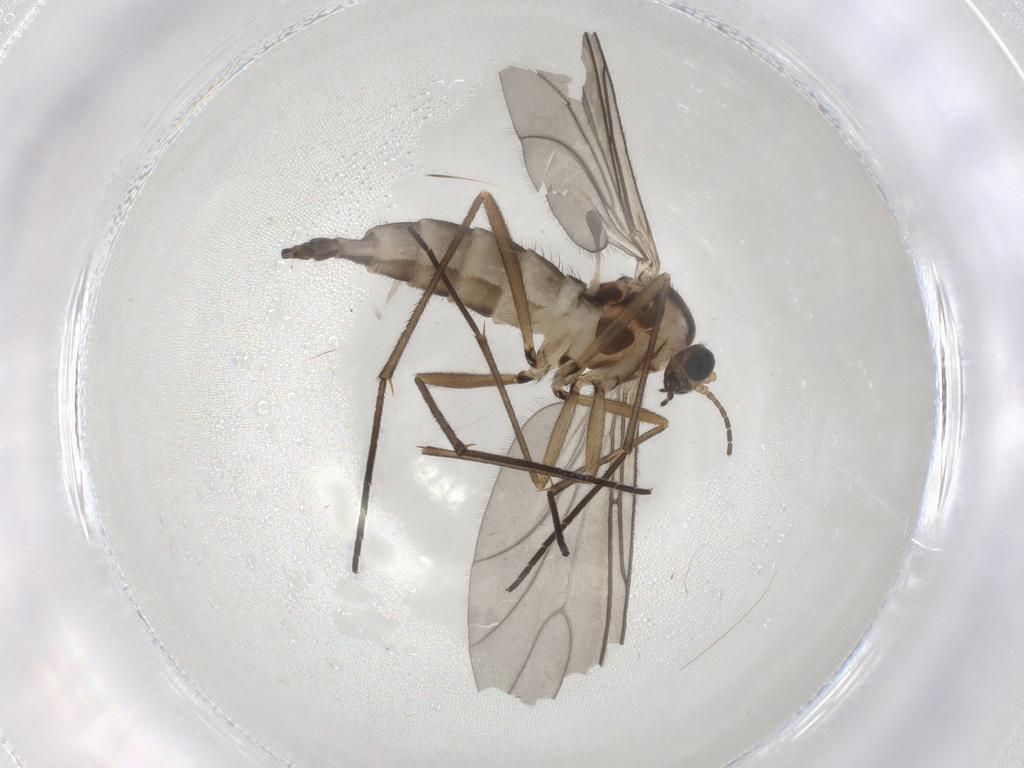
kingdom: Animalia
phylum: Arthropoda
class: Insecta
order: Diptera
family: Sciaridae
